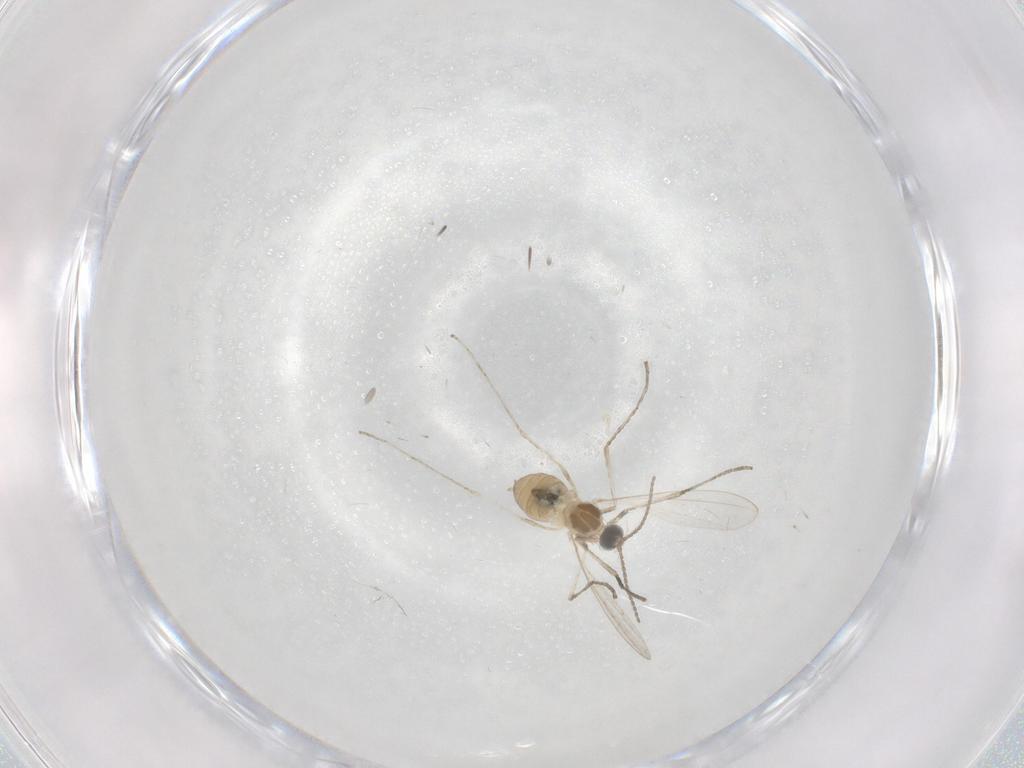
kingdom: Animalia
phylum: Arthropoda
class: Insecta
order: Diptera
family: Cecidomyiidae
